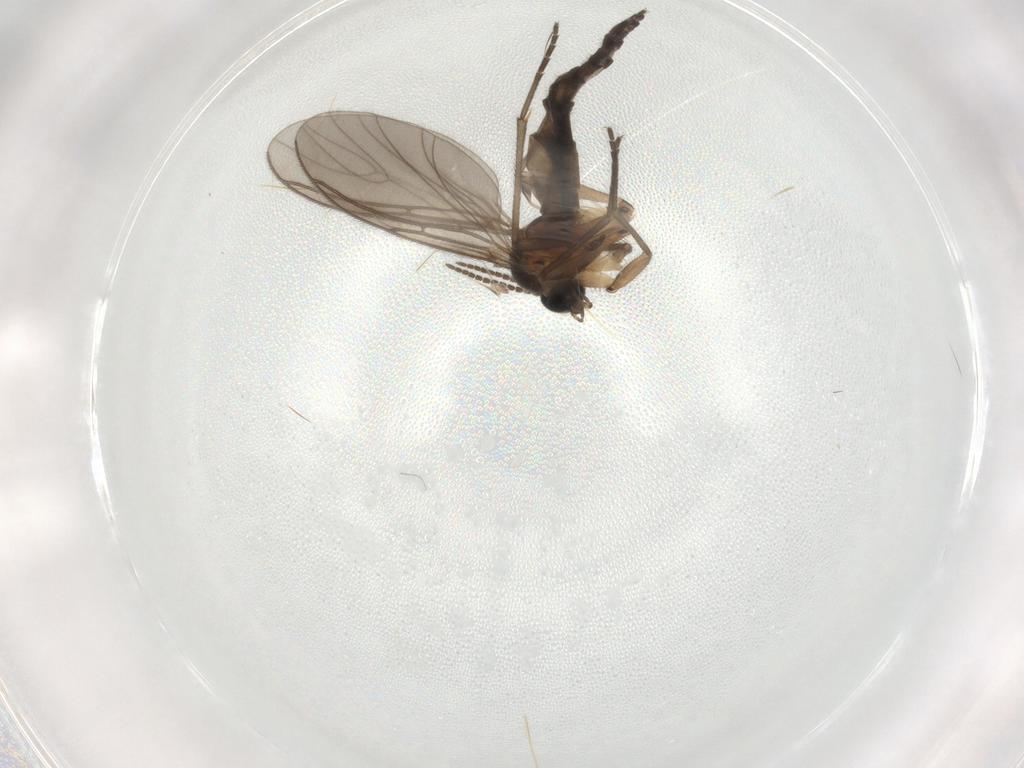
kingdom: Animalia
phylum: Arthropoda
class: Insecta
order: Diptera
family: Sciaridae
